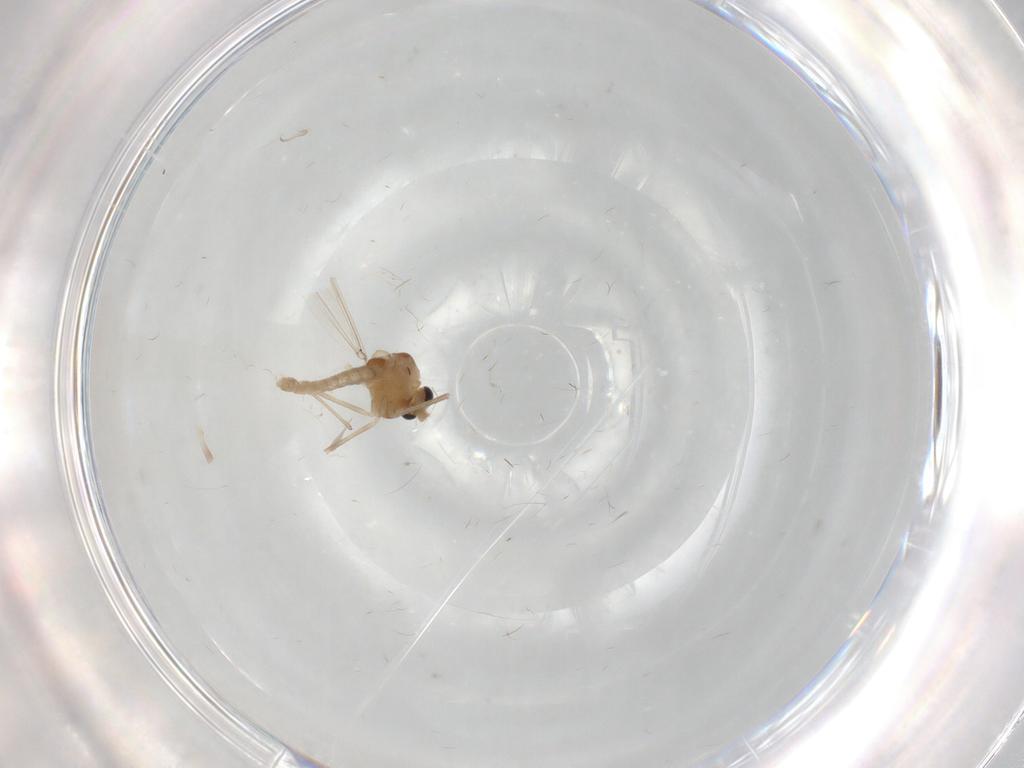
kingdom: Animalia
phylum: Arthropoda
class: Insecta
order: Diptera
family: Chironomidae
